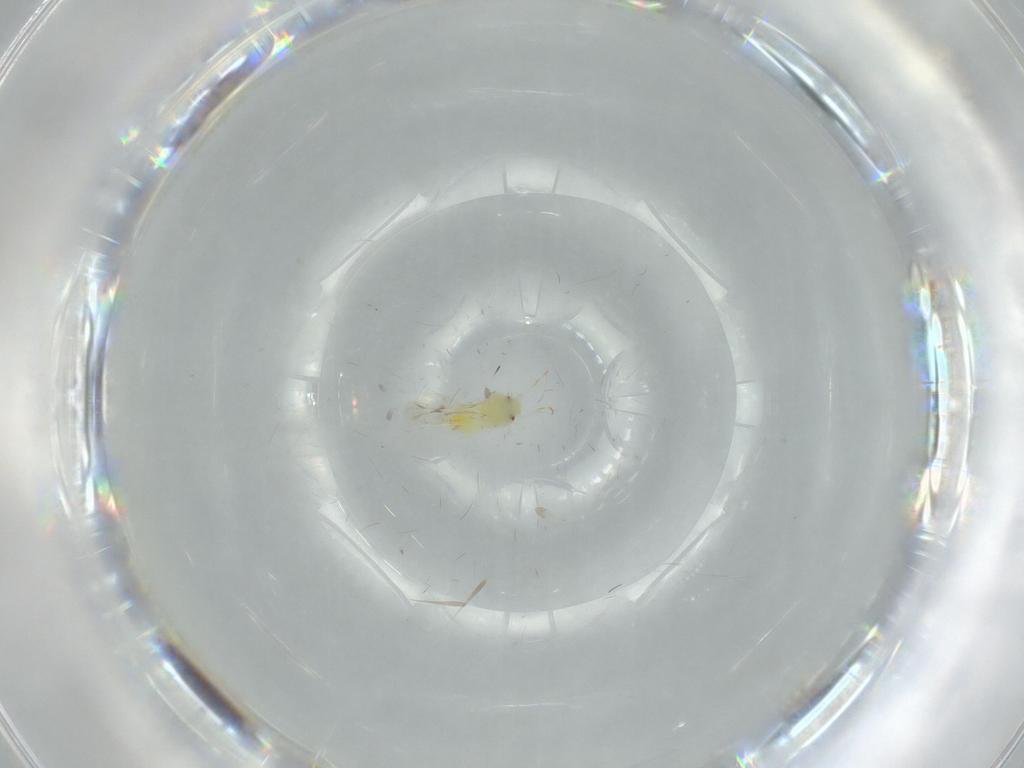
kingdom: Animalia
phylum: Arthropoda
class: Insecta
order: Hemiptera
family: Aleyrodidae
